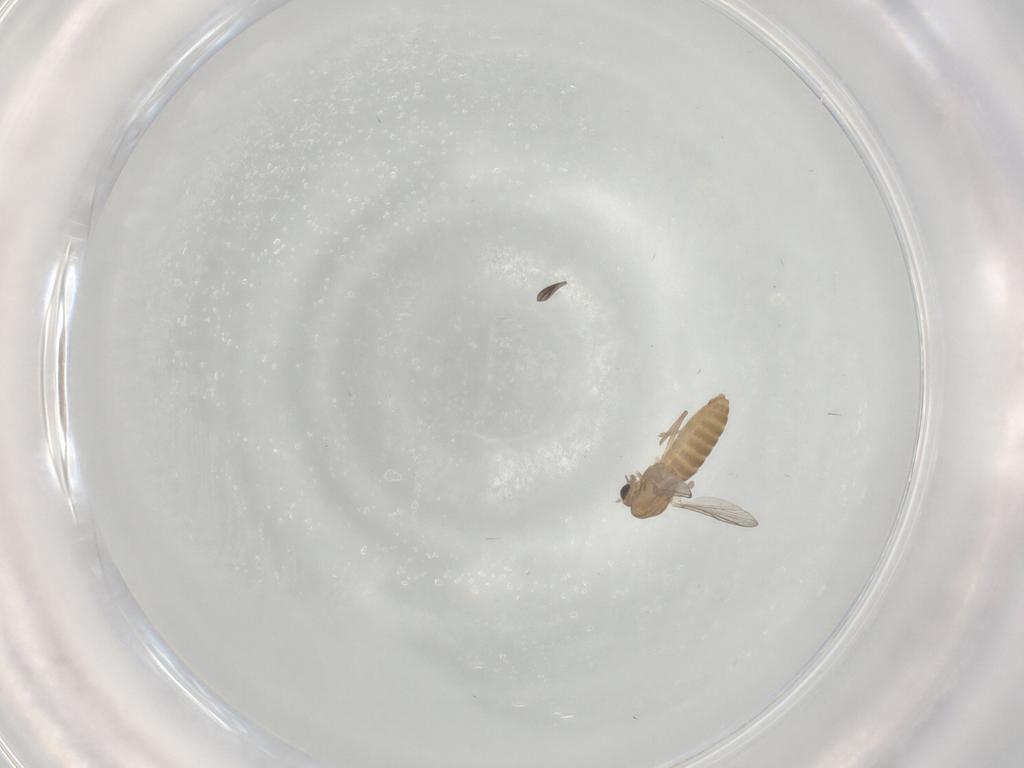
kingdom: Animalia
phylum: Arthropoda
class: Insecta
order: Diptera
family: Chironomidae
